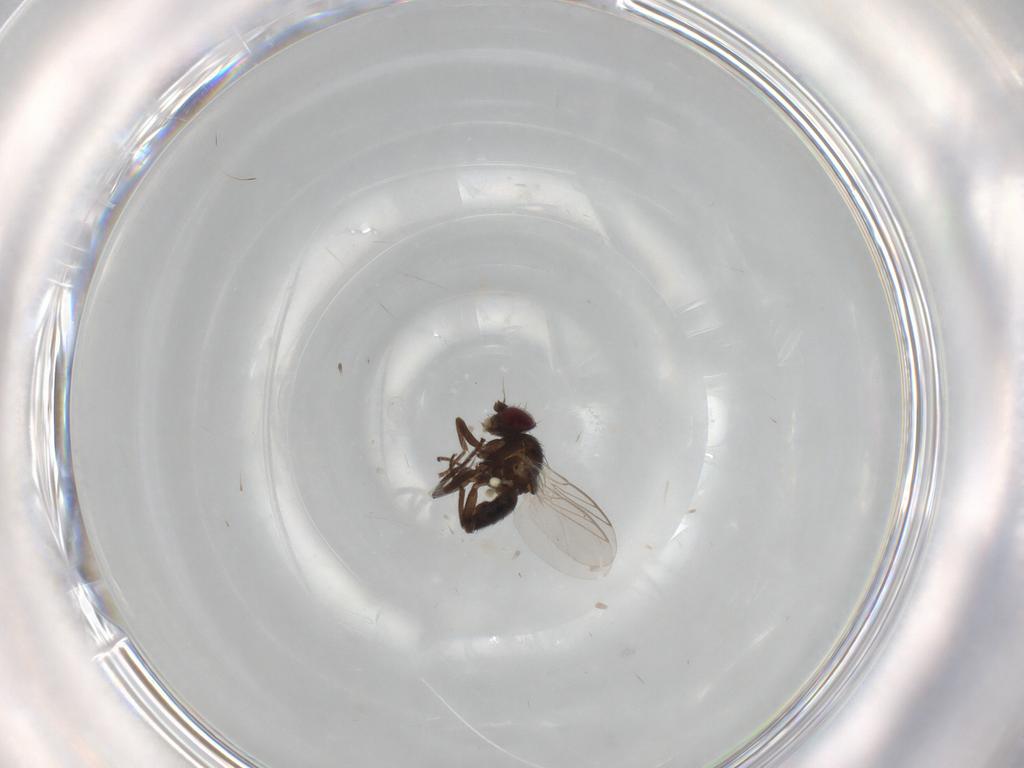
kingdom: Animalia
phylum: Arthropoda
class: Insecta
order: Diptera
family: Agromyzidae
